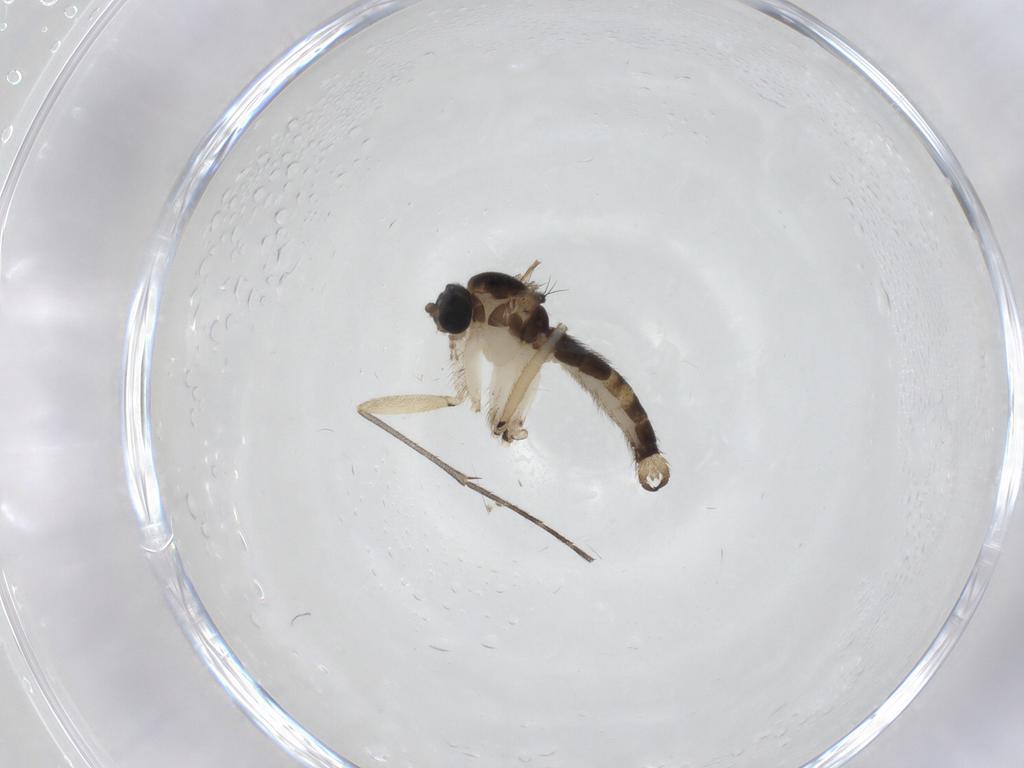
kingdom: Animalia
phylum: Arthropoda
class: Insecta
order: Diptera
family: Sciaridae
